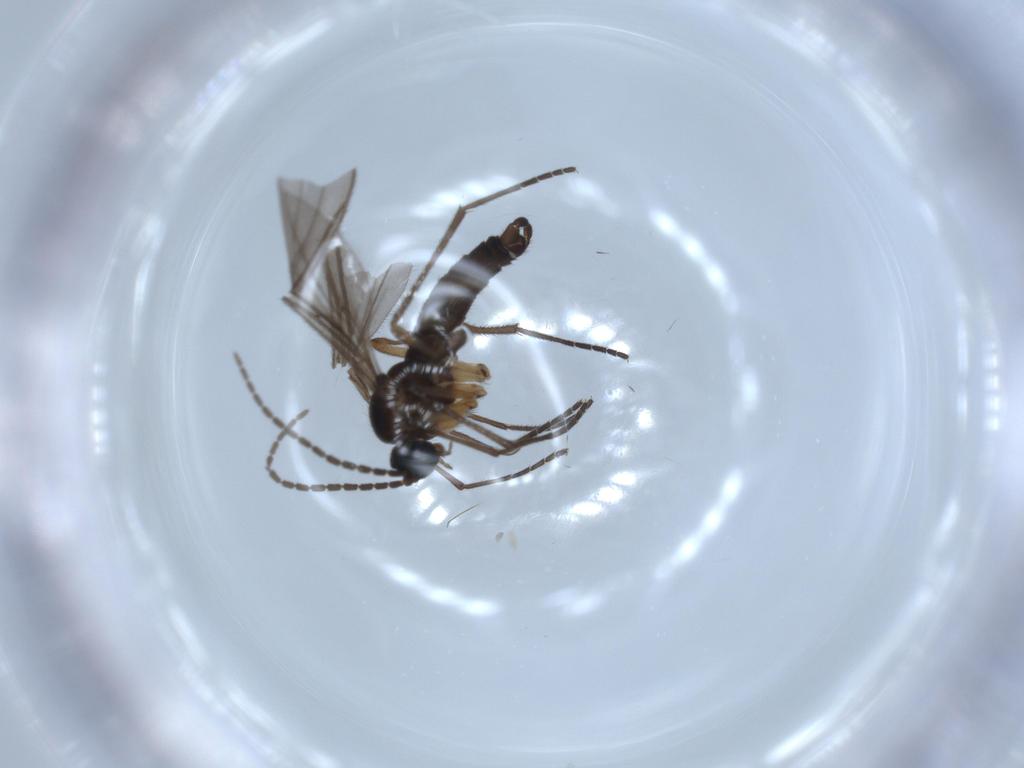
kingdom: Animalia
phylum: Arthropoda
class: Insecta
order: Diptera
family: Sciaridae
